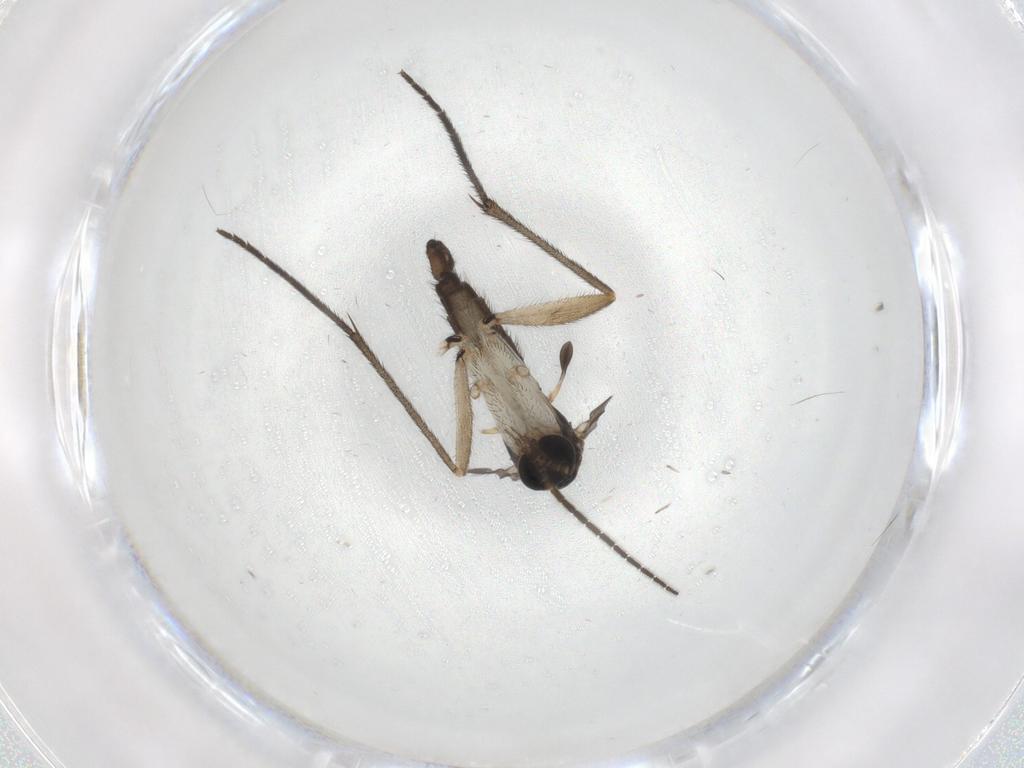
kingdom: Animalia
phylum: Arthropoda
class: Insecta
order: Diptera
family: Sciaridae
